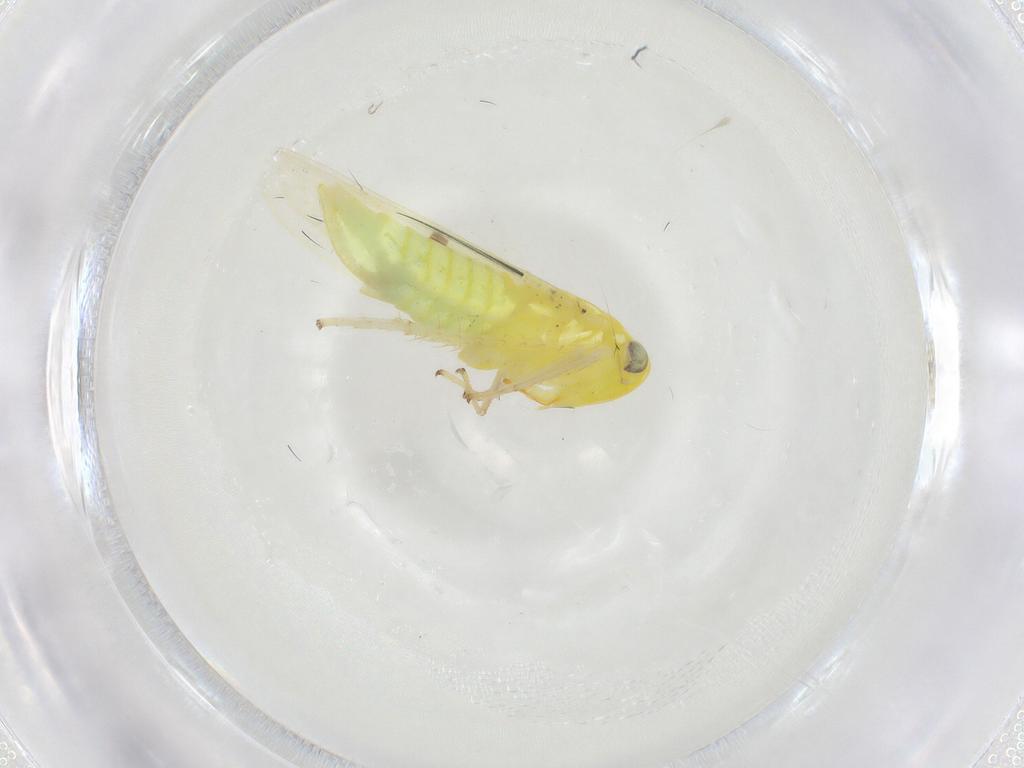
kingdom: Animalia
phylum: Arthropoda
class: Insecta
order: Hemiptera
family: Cicadellidae
